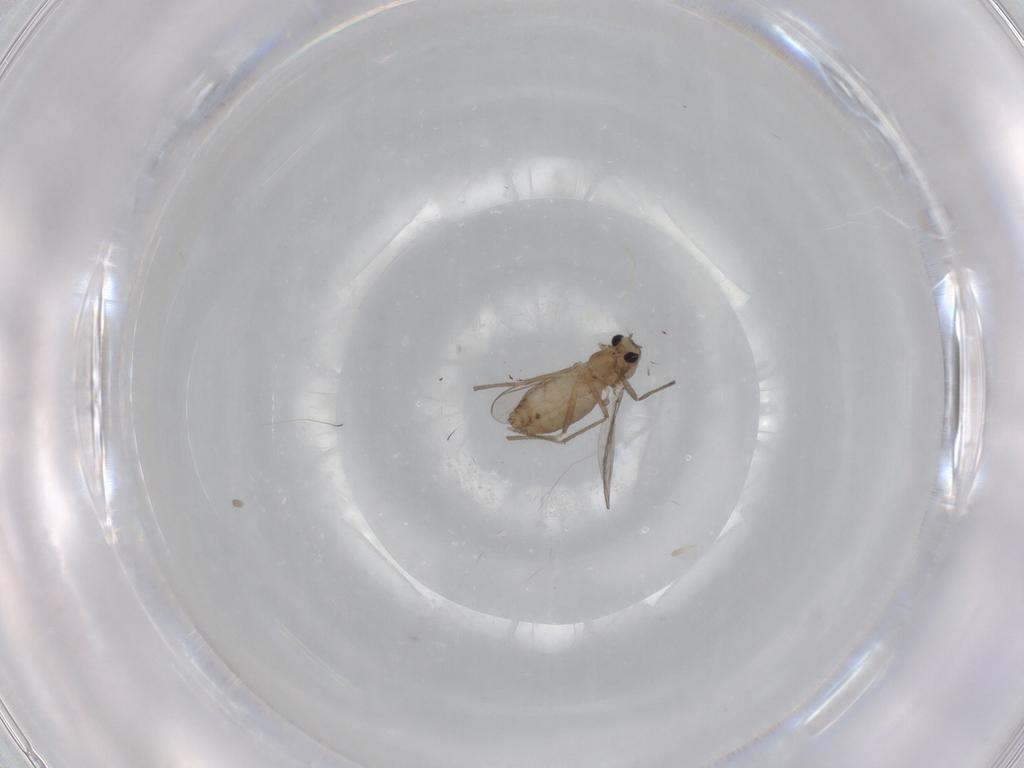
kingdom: Animalia
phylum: Arthropoda
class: Insecta
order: Diptera
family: Chironomidae
